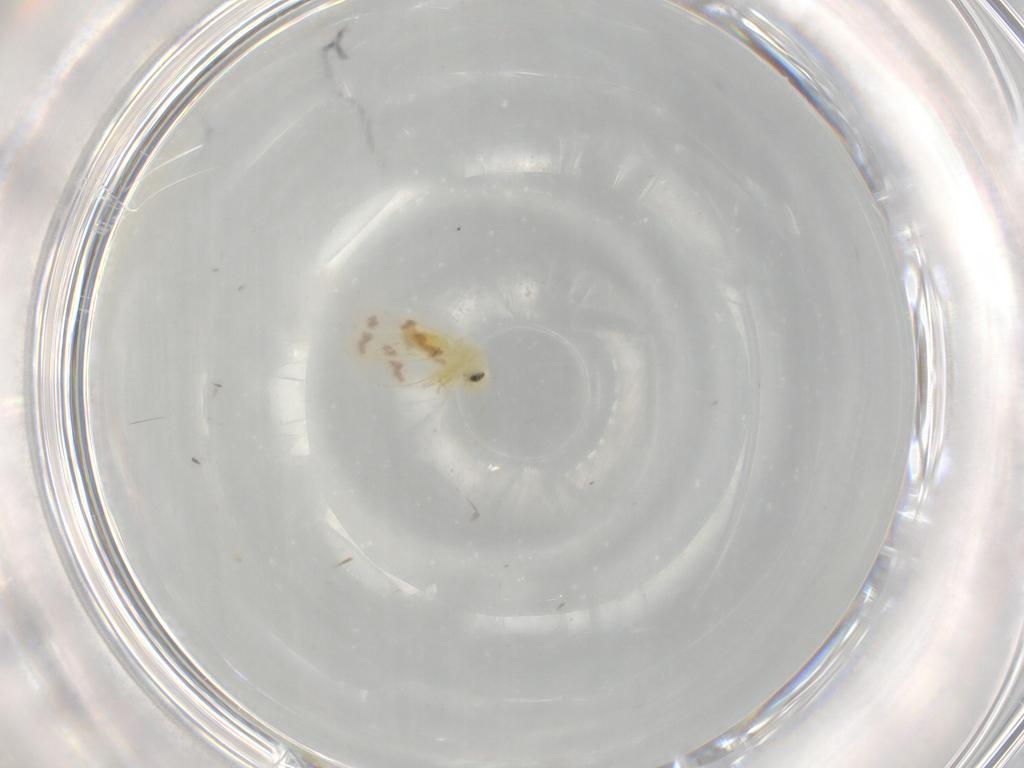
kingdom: Animalia
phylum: Arthropoda
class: Insecta
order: Hemiptera
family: Aleyrodidae
